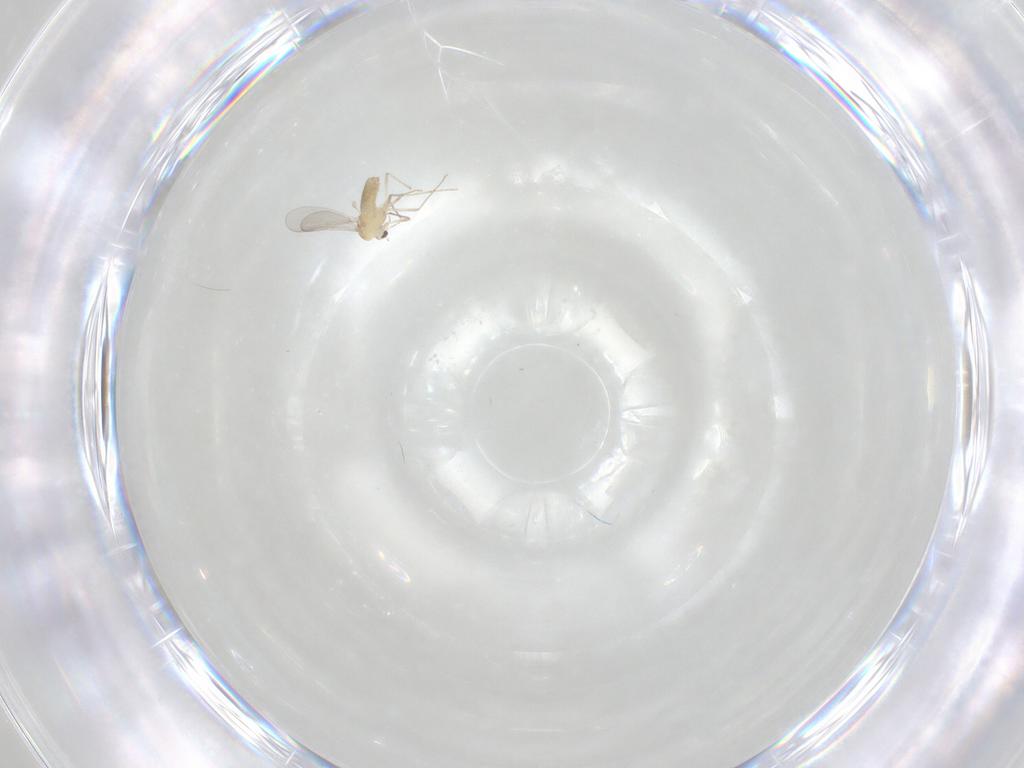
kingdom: Animalia
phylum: Arthropoda
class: Insecta
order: Diptera
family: Chironomidae
